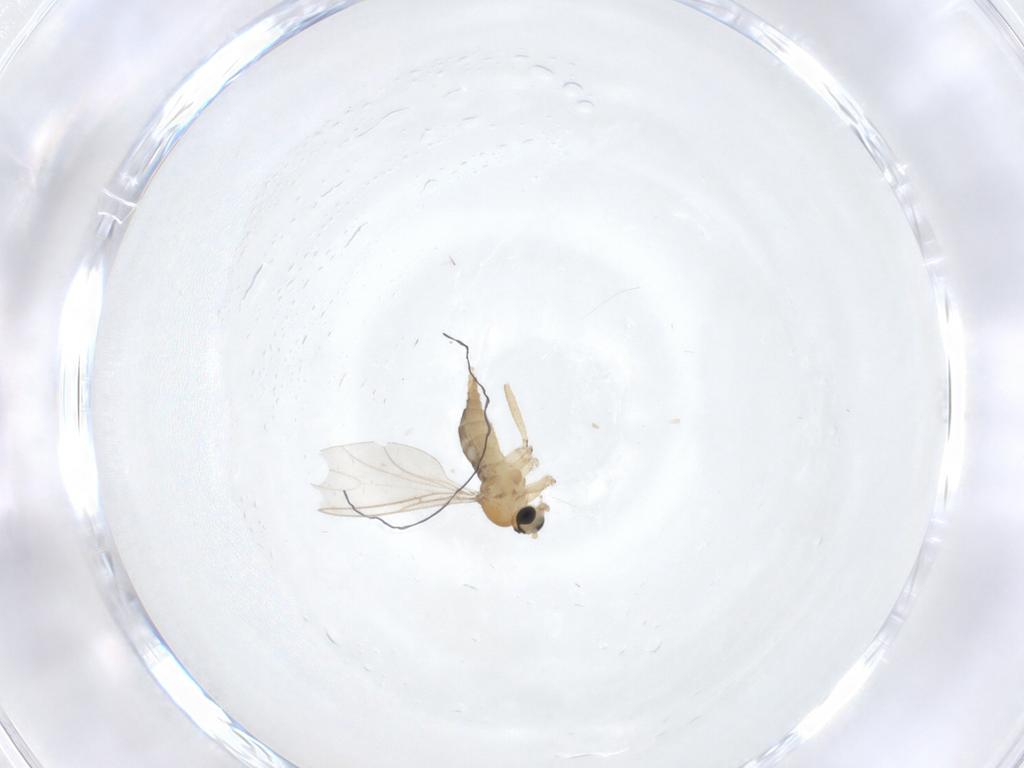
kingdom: Animalia
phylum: Arthropoda
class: Insecta
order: Diptera
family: Sciaridae
